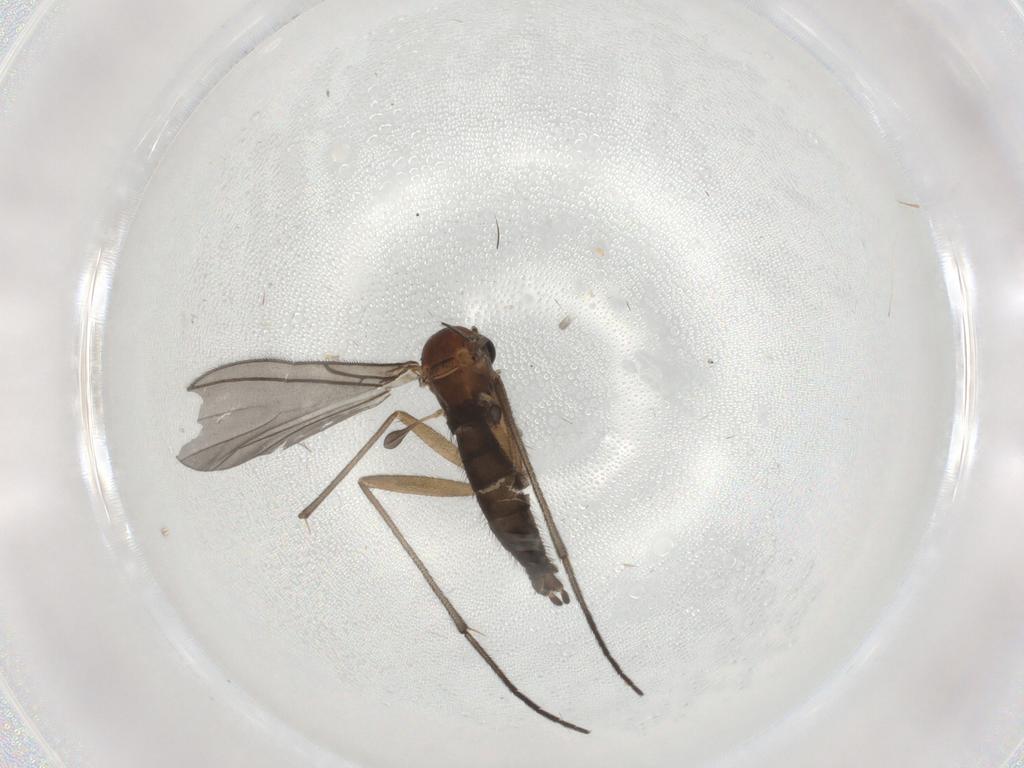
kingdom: Animalia
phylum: Arthropoda
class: Insecta
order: Diptera
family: Sciaridae
